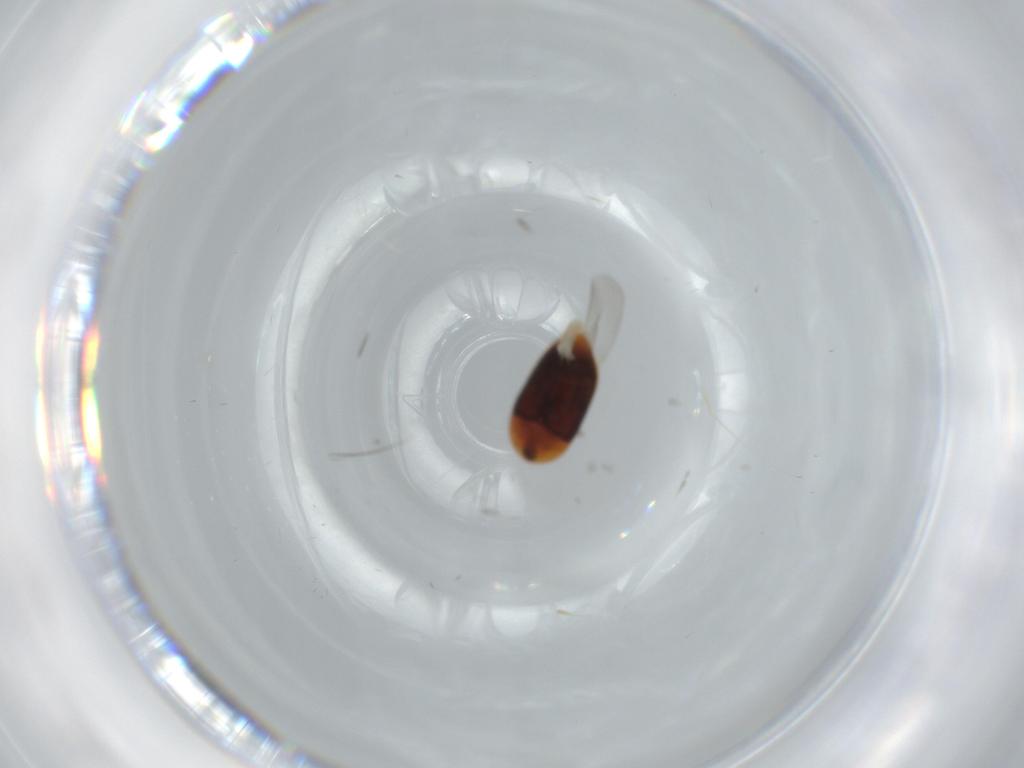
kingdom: Animalia
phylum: Arthropoda
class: Insecta
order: Coleoptera
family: Corylophidae
